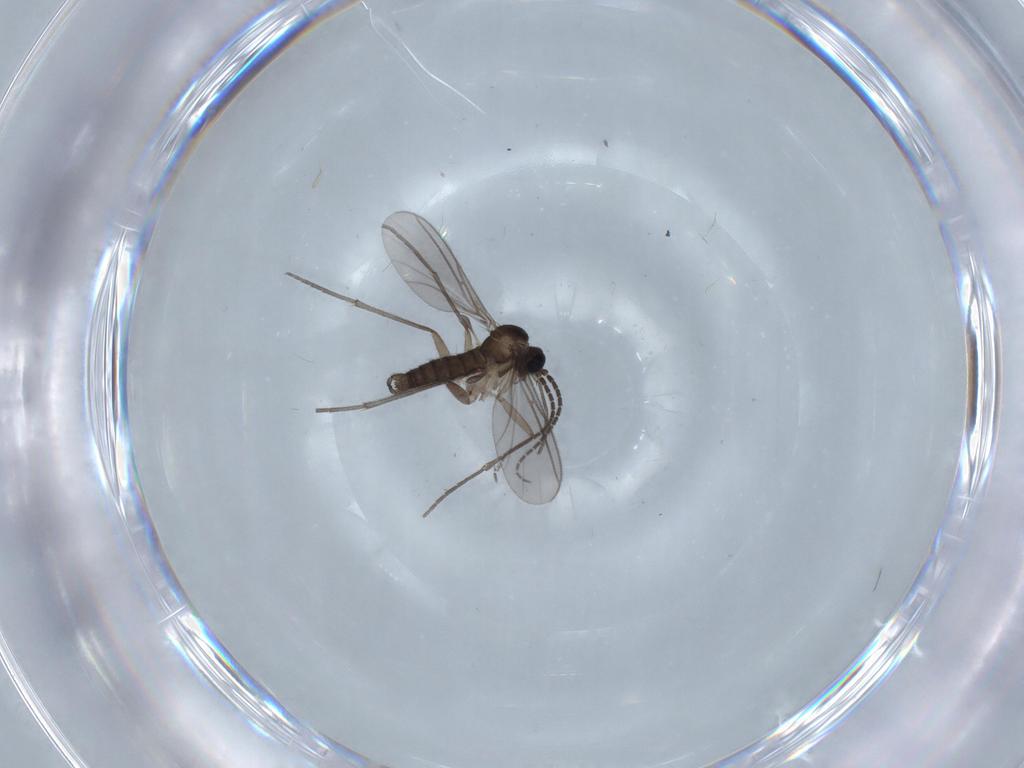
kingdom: Animalia
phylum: Arthropoda
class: Insecta
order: Diptera
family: Sciaridae
